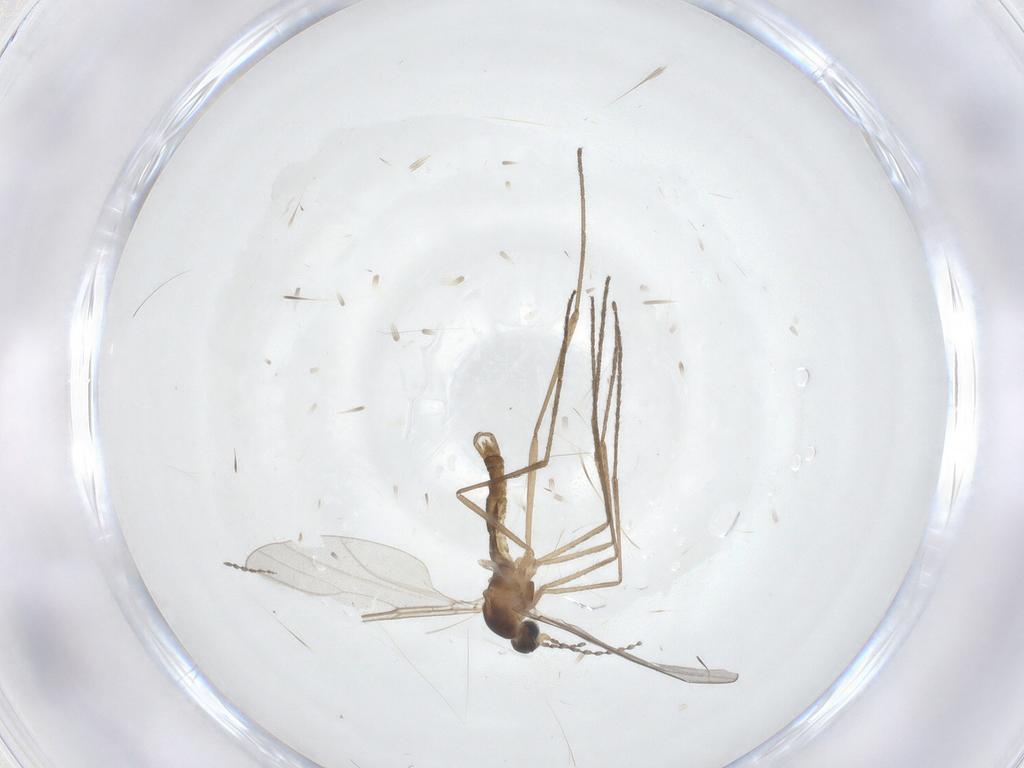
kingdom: Animalia
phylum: Arthropoda
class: Insecta
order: Diptera
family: Cecidomyiidae
